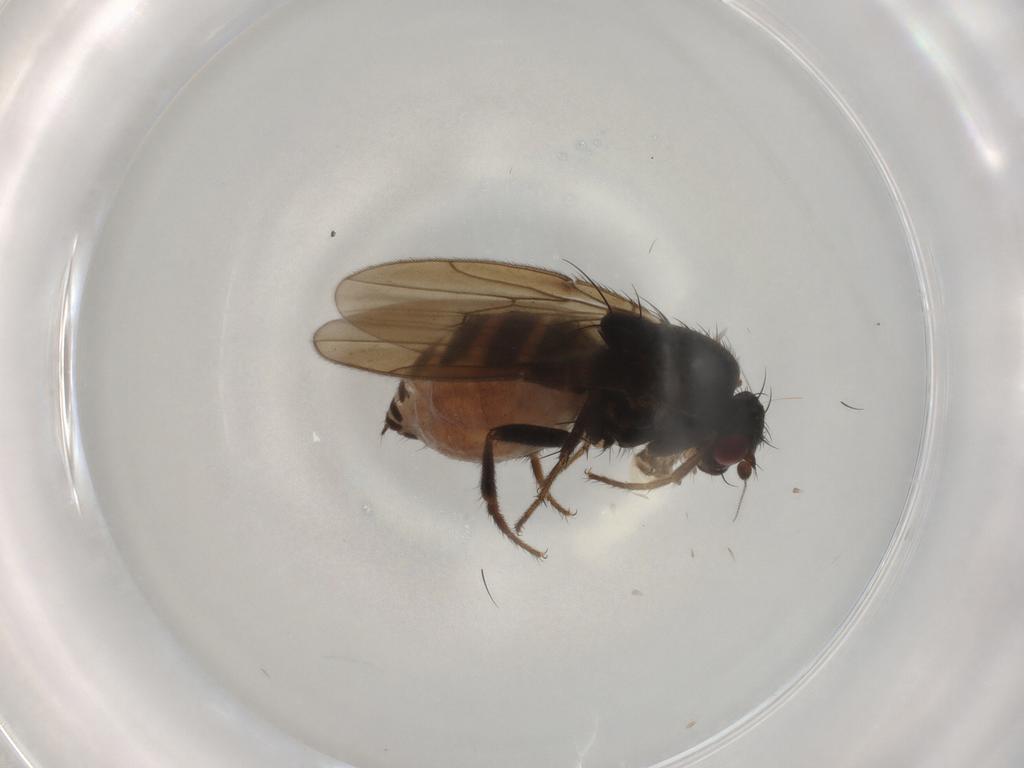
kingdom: Animalia
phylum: Arthropoda
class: Insecta
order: Diptera
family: Sphaeroceridae
